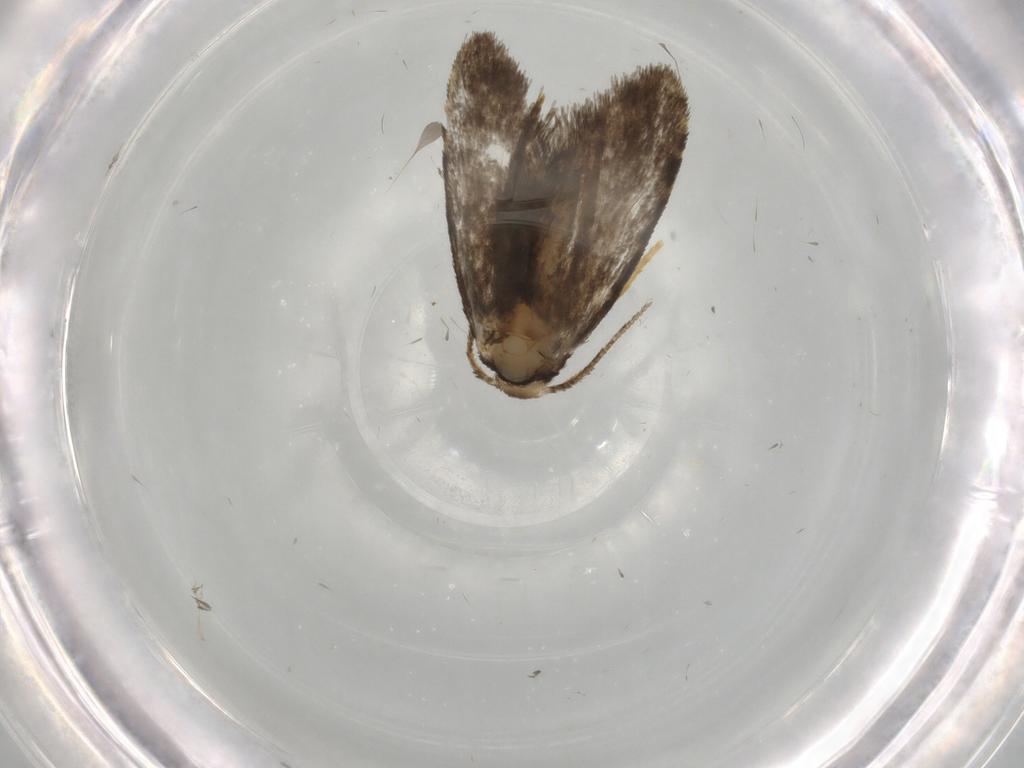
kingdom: Animalia
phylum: Arthropoda
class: Insecta
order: Lepidoptera
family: Psychidae
